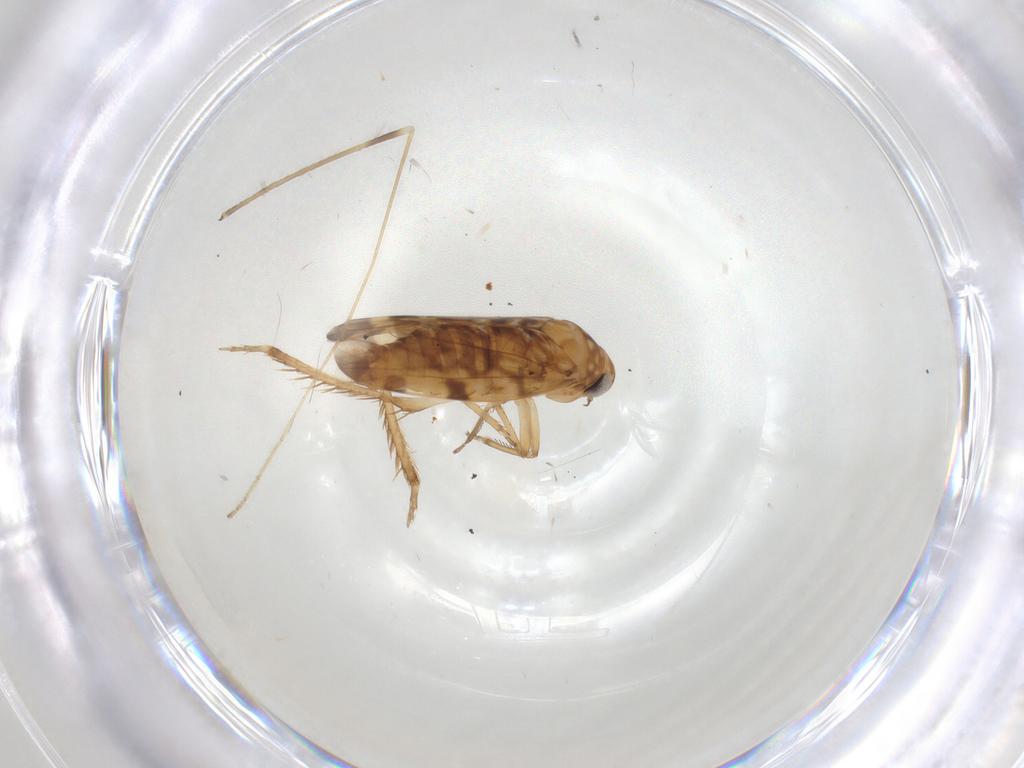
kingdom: Animalia
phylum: Arthropoda
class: Insecta
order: Hemiptera
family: Cicadellidae
